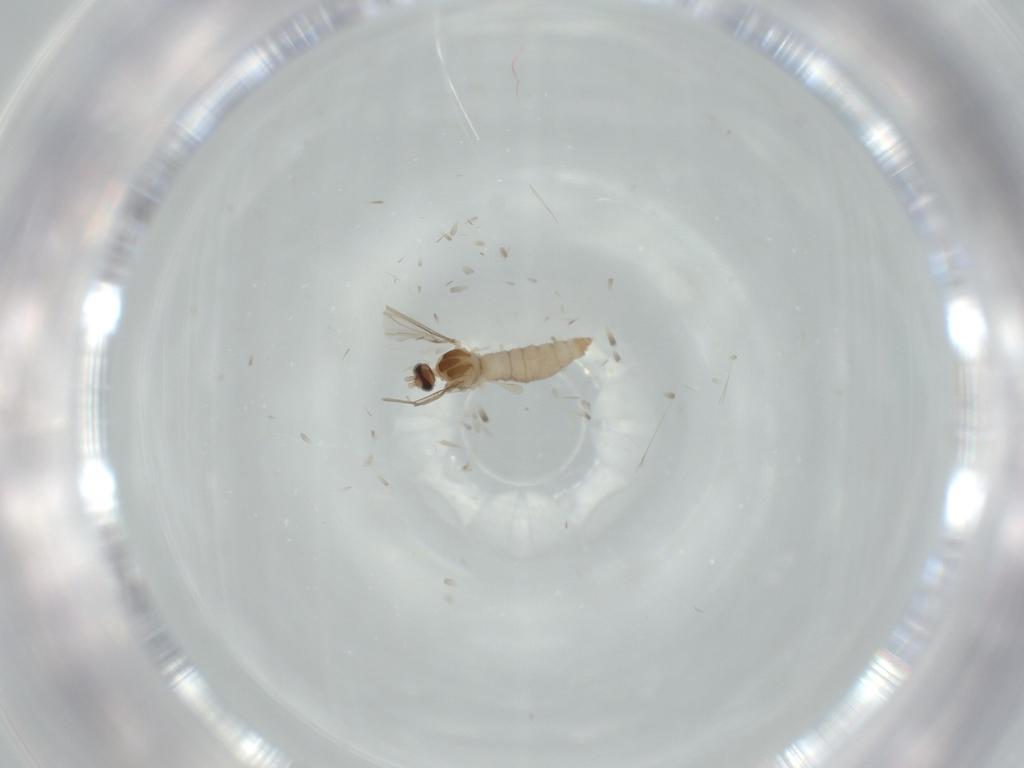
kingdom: Animalia
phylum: Arthropoda
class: Insecta
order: Diptera
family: Cecidomyiidae
